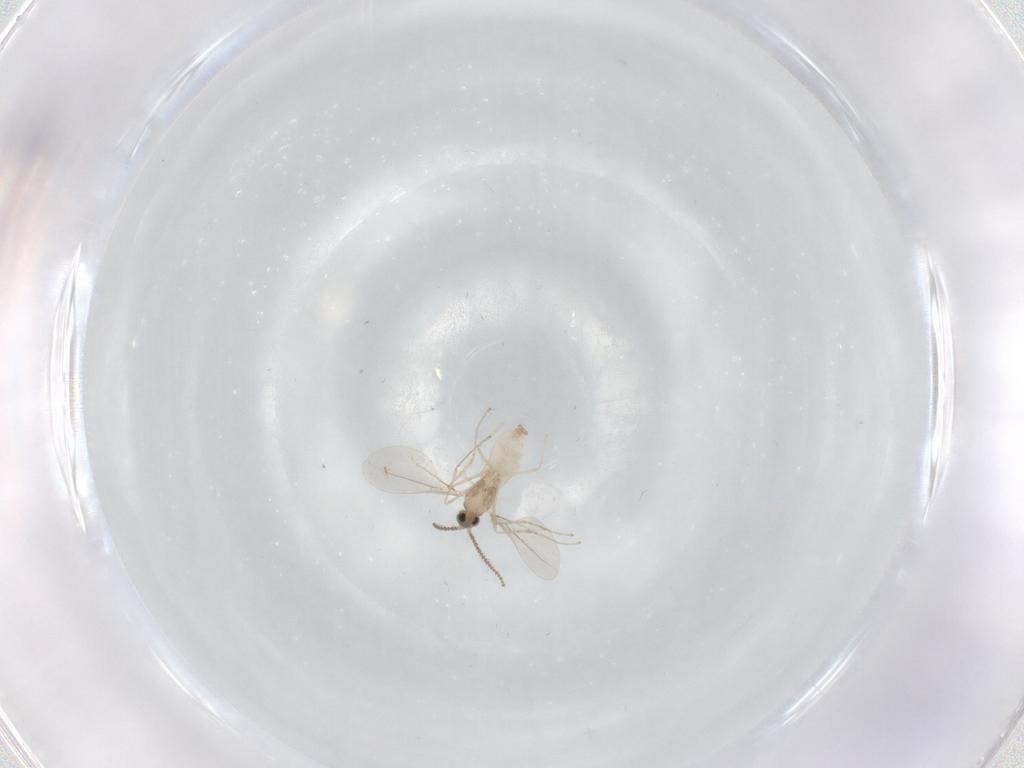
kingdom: Animalia
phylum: Arthropoda
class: Insecta
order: Diptera
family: Cecidomyiidae
